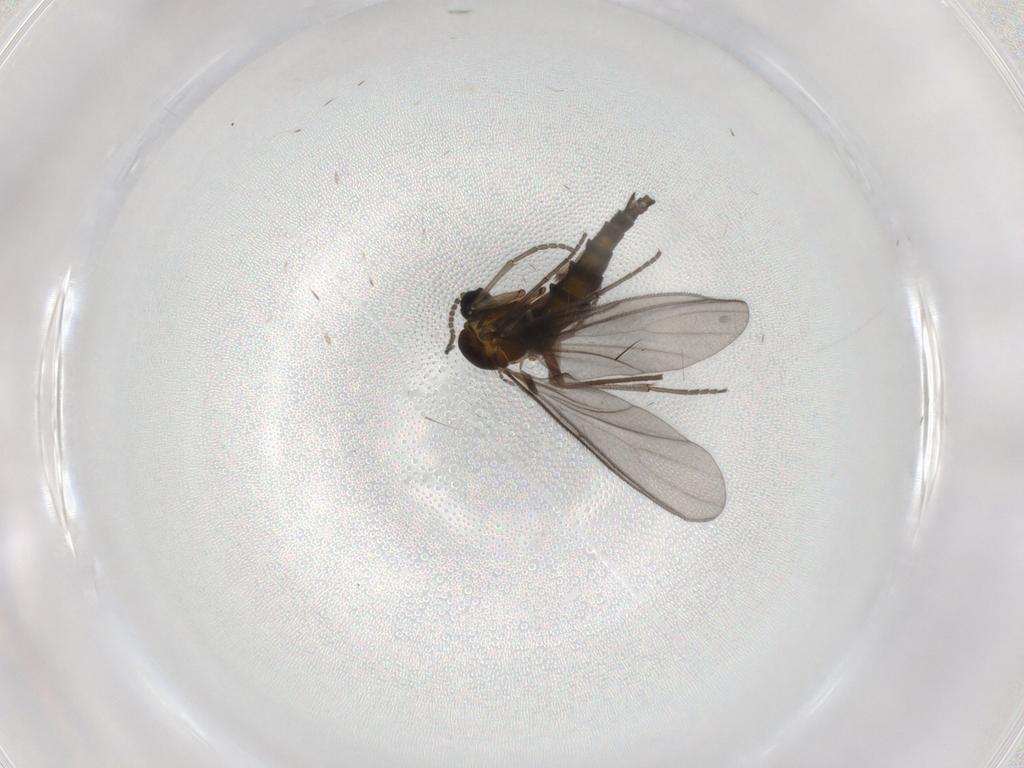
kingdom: Animalia
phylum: Arthropoda
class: Insecta
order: Diptera
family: Sciaridae
